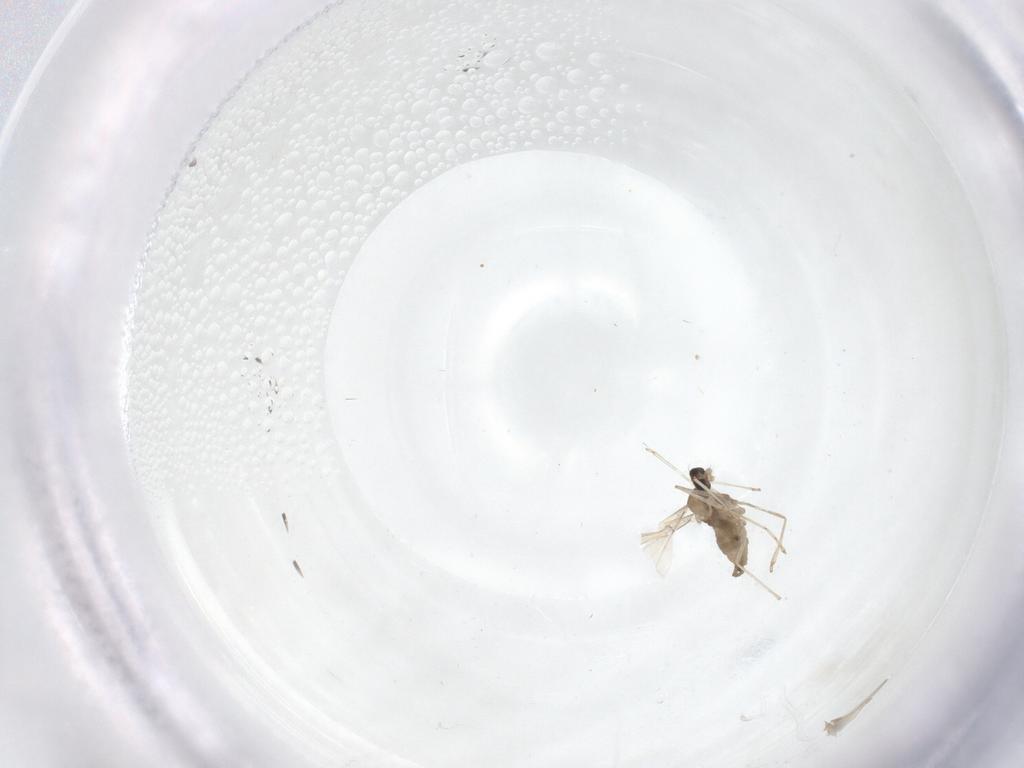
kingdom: Animalia
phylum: Arthropoda
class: Insecta
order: Diptera
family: Cecidomyiidae
